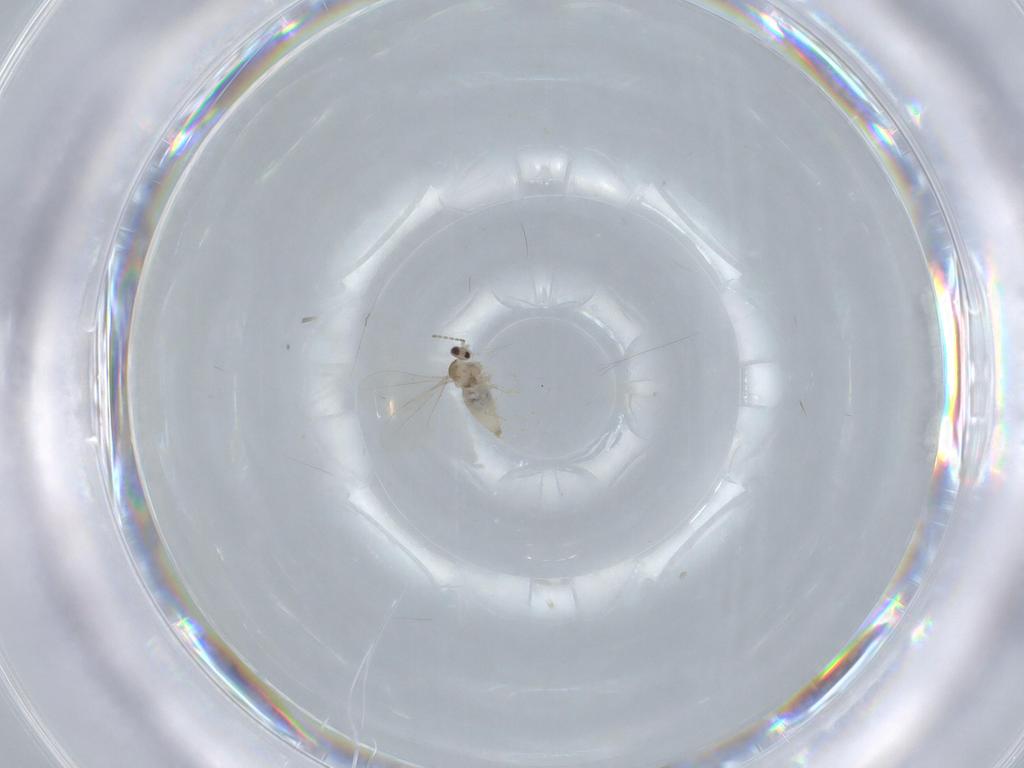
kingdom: Animalia
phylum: Arthropoda
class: Insecta
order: Diptera
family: Cecidomyiidae
